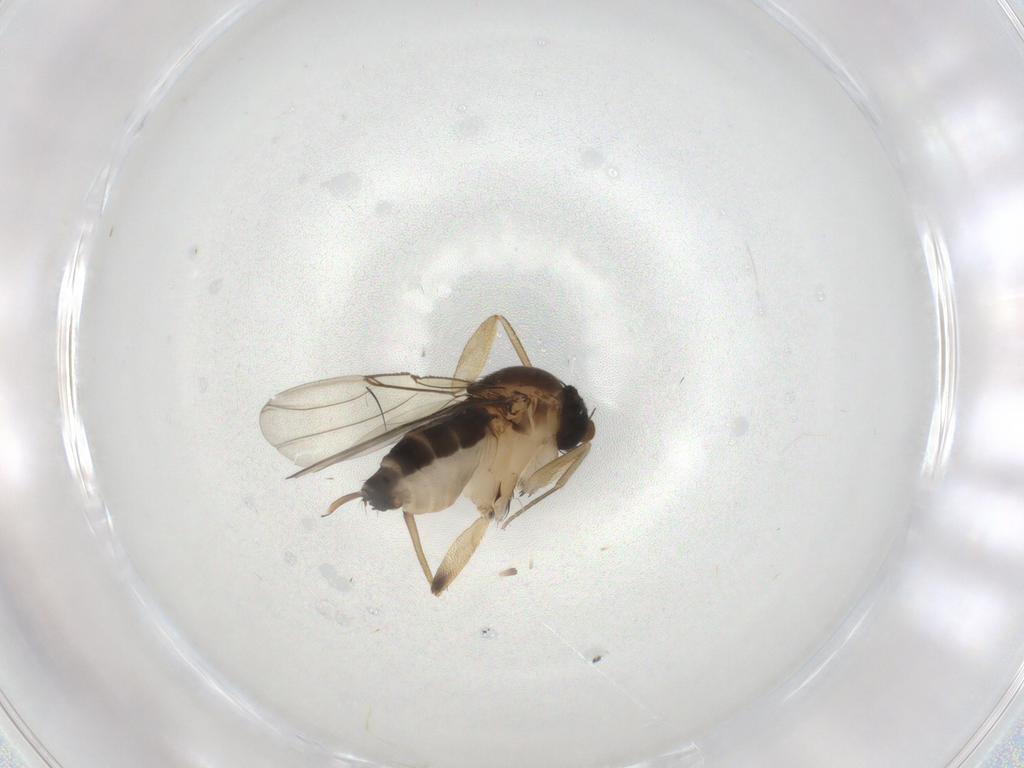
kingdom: Animalia
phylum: Arthropoda
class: Insecta
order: Diptera
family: Phoridae
